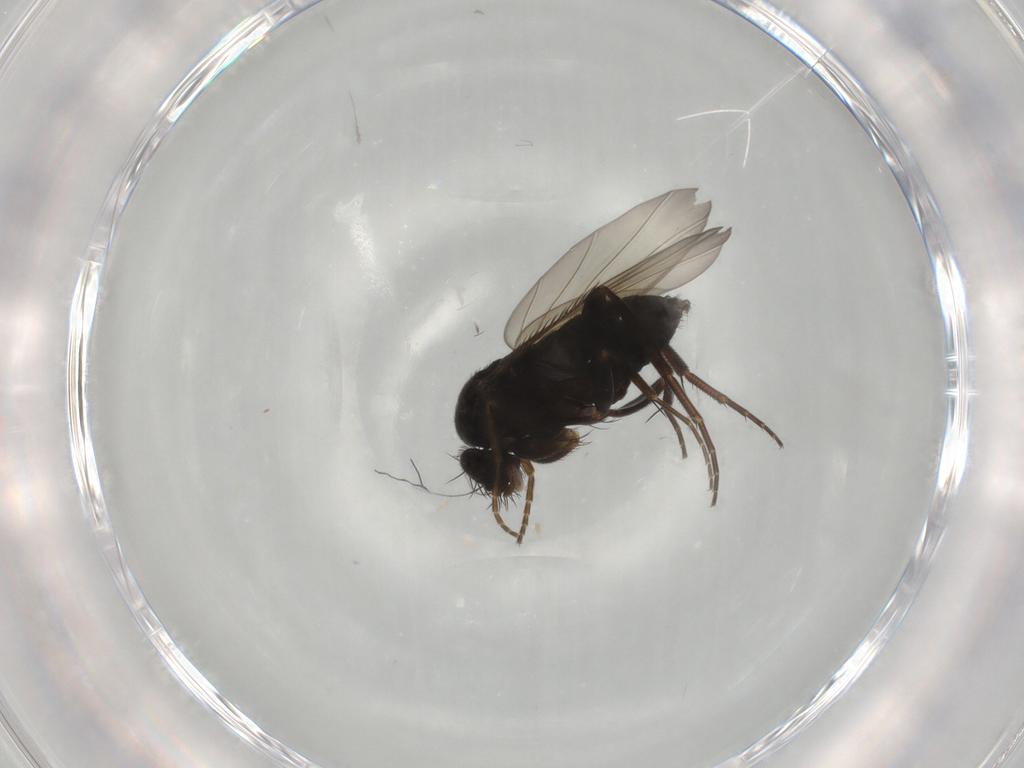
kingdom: Animalia
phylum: Arthropoda
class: Insecta
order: Diptera
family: Phoridae
